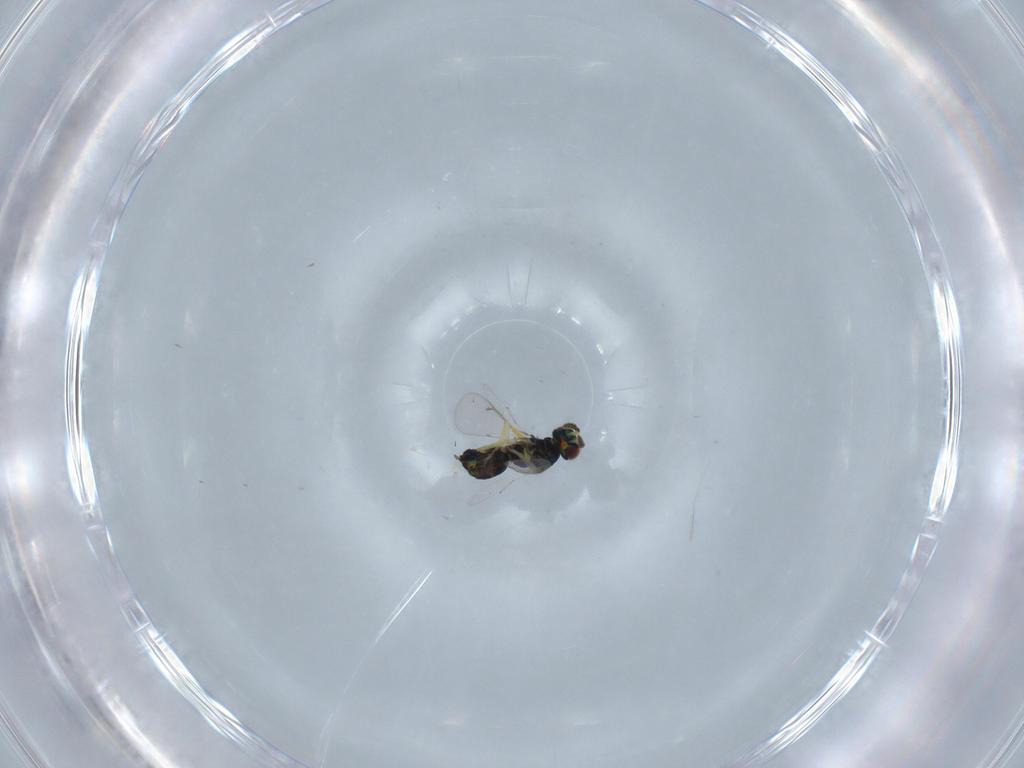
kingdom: Animalia
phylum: Arthropoda
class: Insecta
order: Hymenoptera
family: Eulophidae
